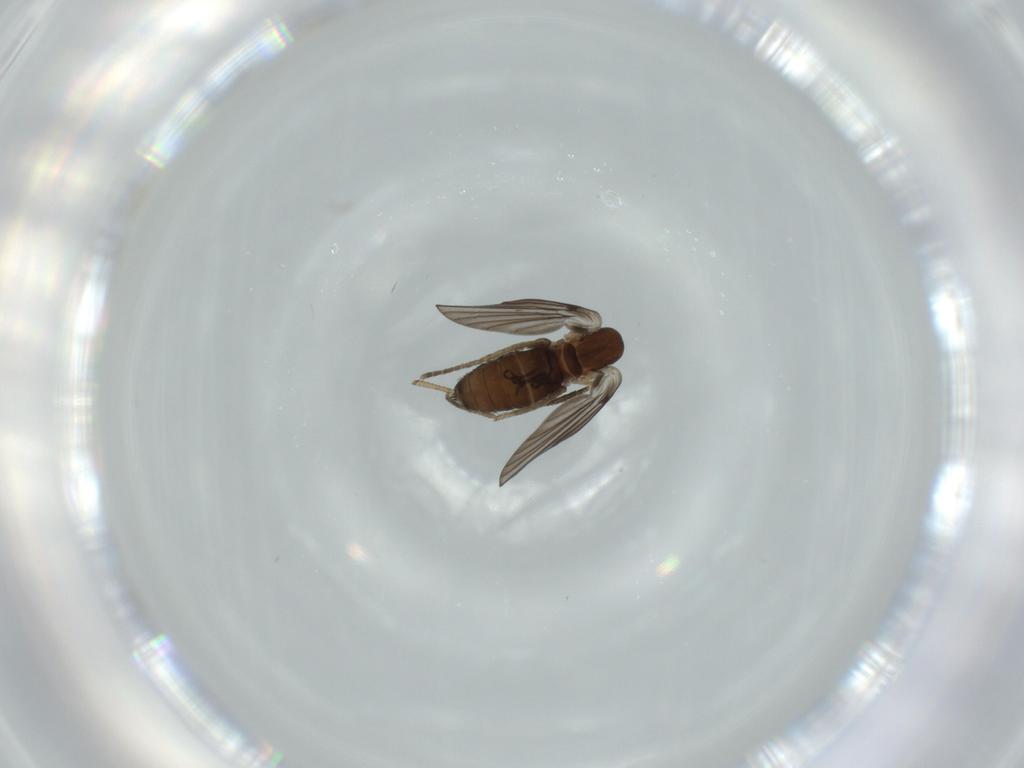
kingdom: Animalia
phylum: Arthropoda
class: Insecta
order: Diptera
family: Psychodidae
